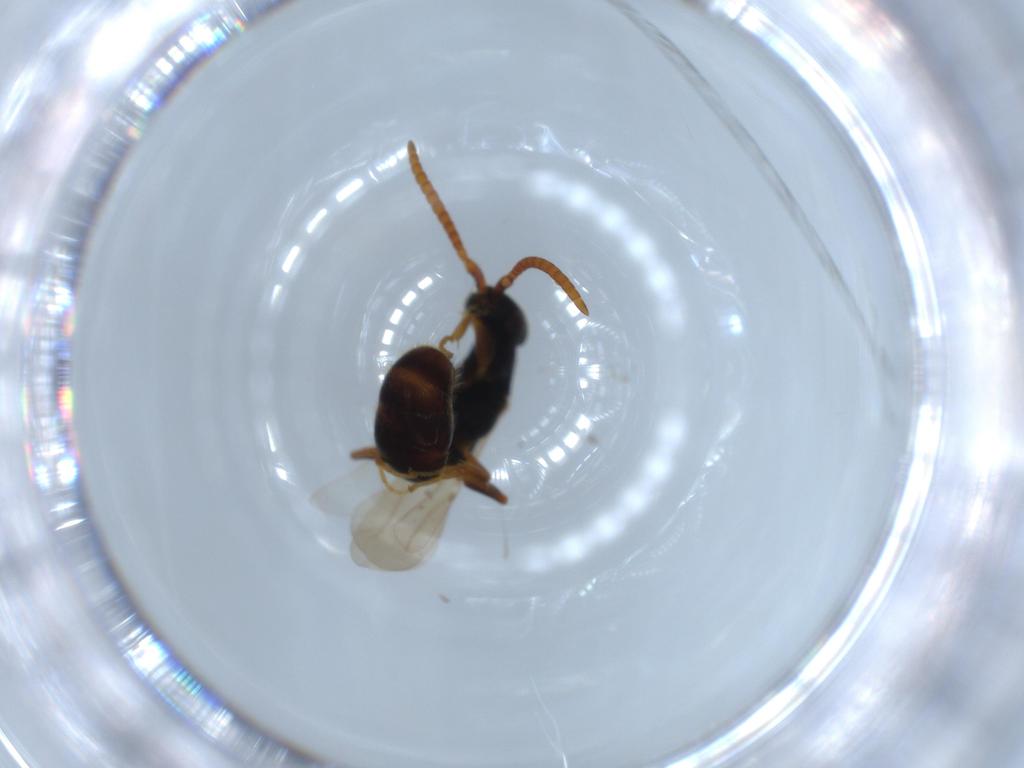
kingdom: Animalia
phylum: Arthropoda
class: Insecta
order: Hymenoptera
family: Bethylidae
